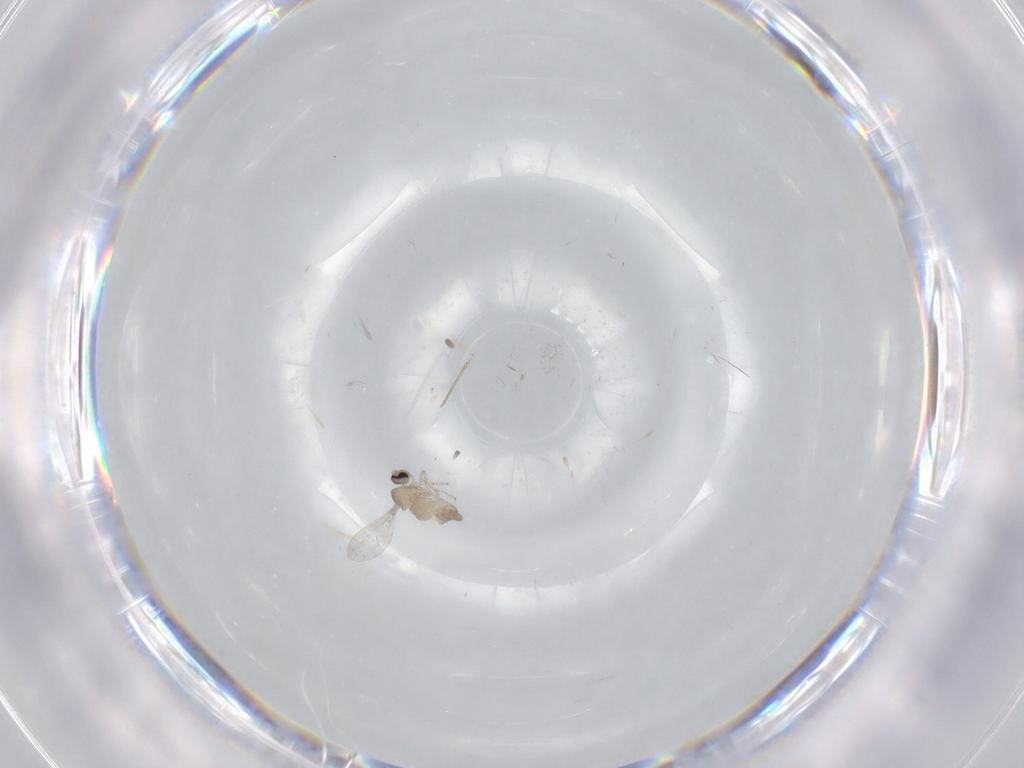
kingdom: Animalia
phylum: Arthropoda
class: Insecta
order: Diptera
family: Cecidomyiidae
